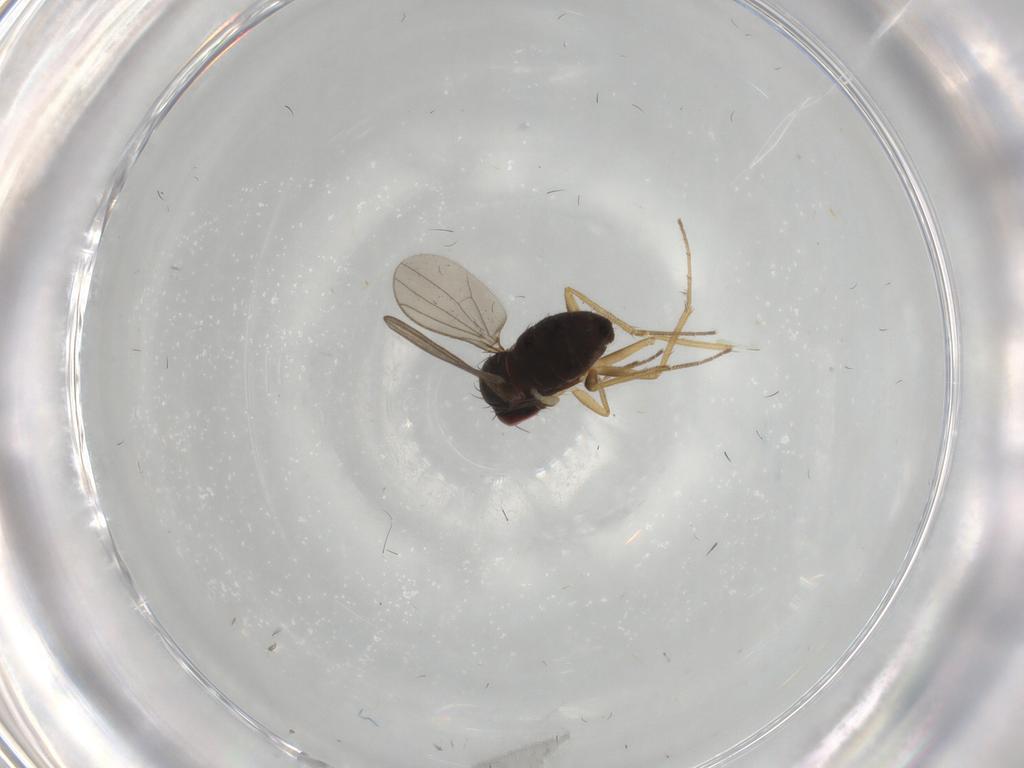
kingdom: Animalia
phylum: Arthropoda
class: Insecta
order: Diptera
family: Dolichopodidae
